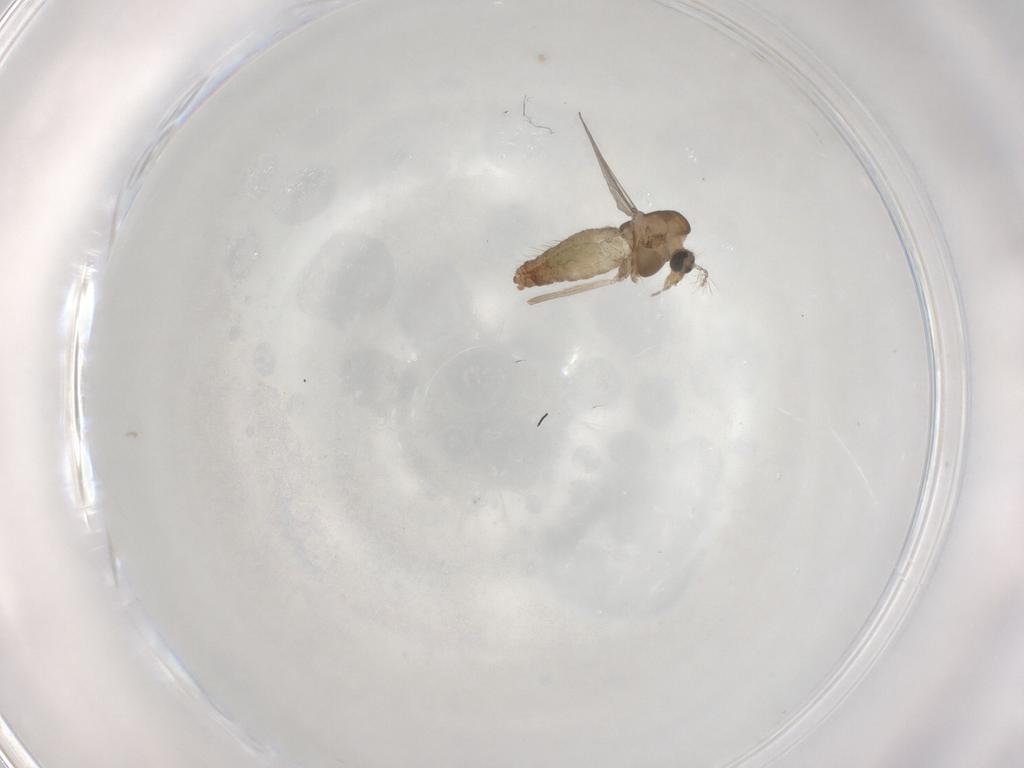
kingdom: Animalia
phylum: Arthropoda
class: Insecta
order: Diptera
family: Chironomidae
